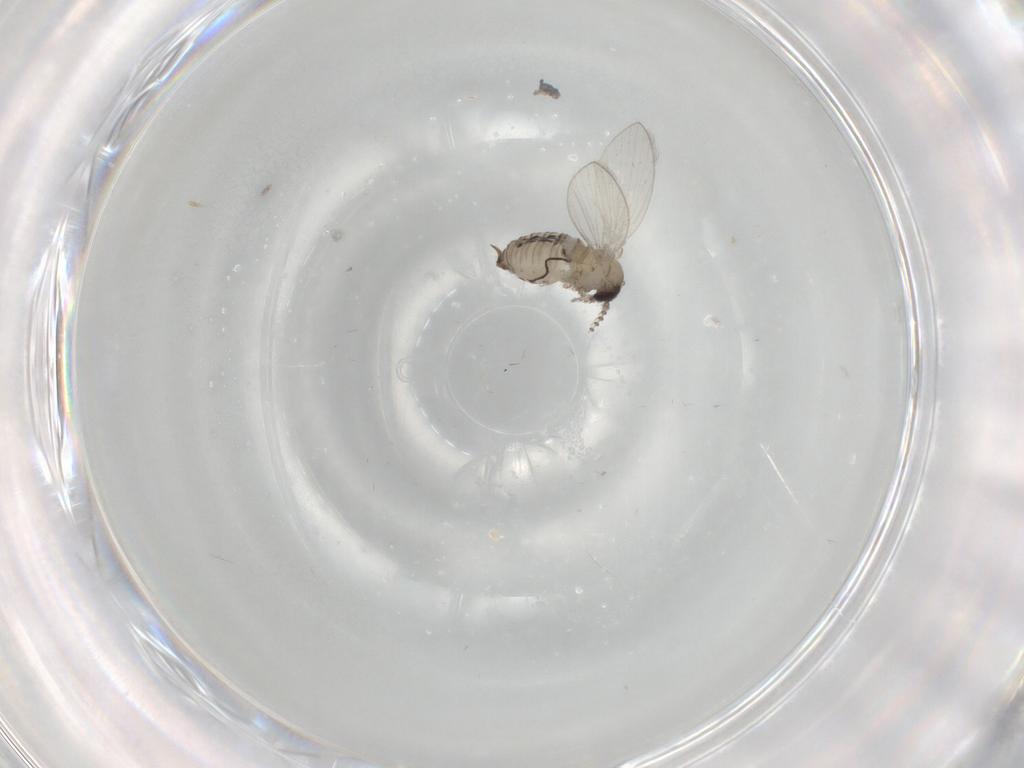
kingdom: Animalia
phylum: Arthropoda
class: Insecta
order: Diptera
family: Psychodidae
